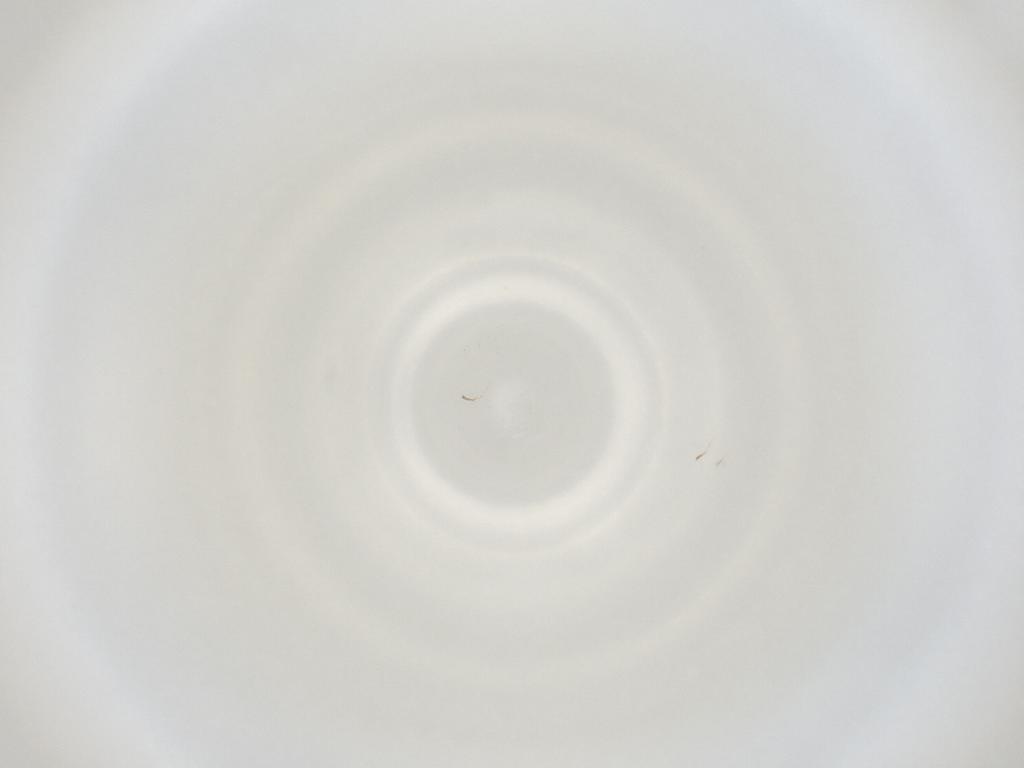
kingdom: Animalia
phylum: Arthropoda
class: Insecta
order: Diptera
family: Cecidomyiidae
